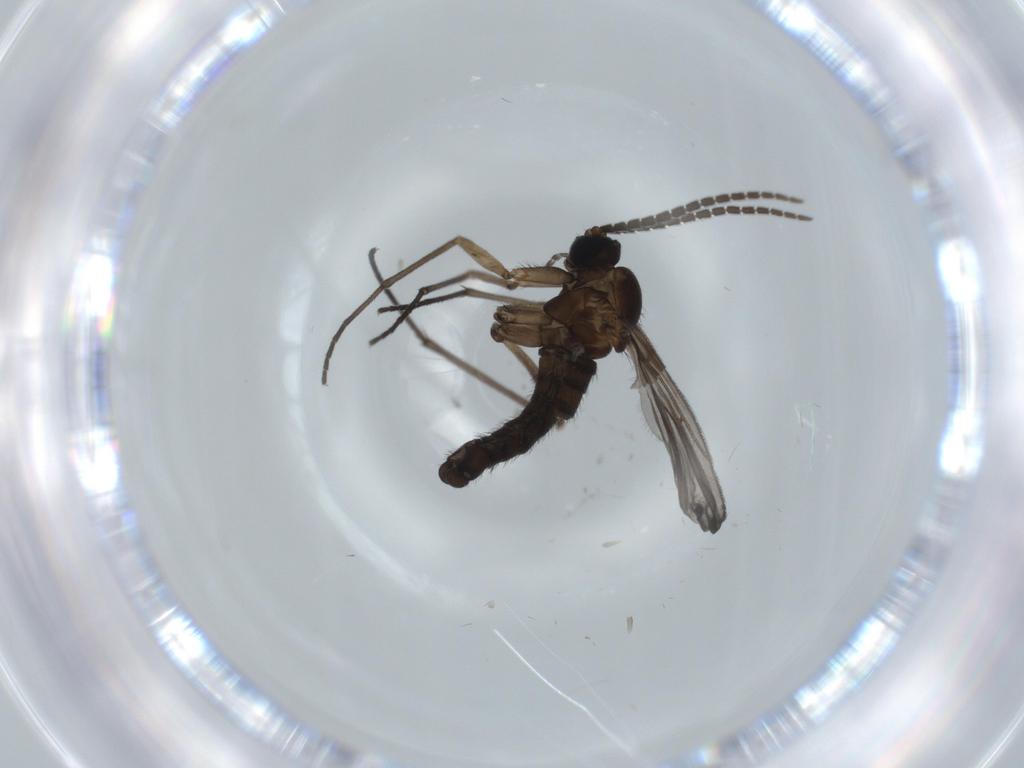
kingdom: Animalia
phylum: Arthropoda
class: Insecta
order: Diptera
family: Sciaridae
